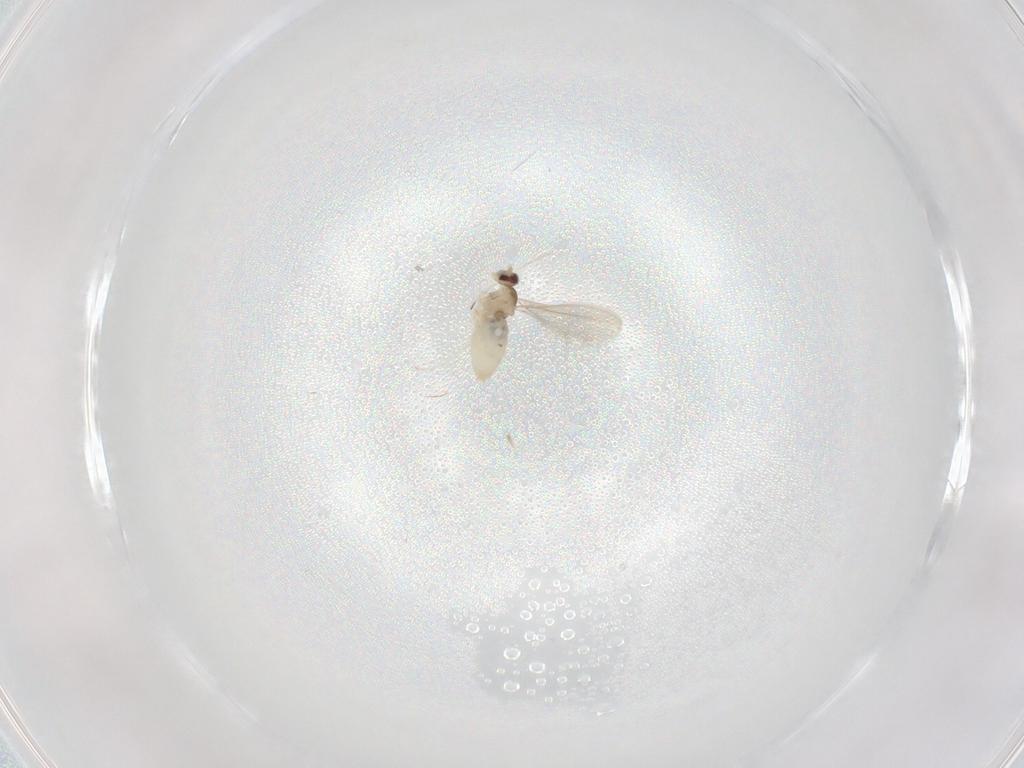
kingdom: Animalia
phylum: Arthropoda
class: Insecta
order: Diptera
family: Cecidomyiidae
